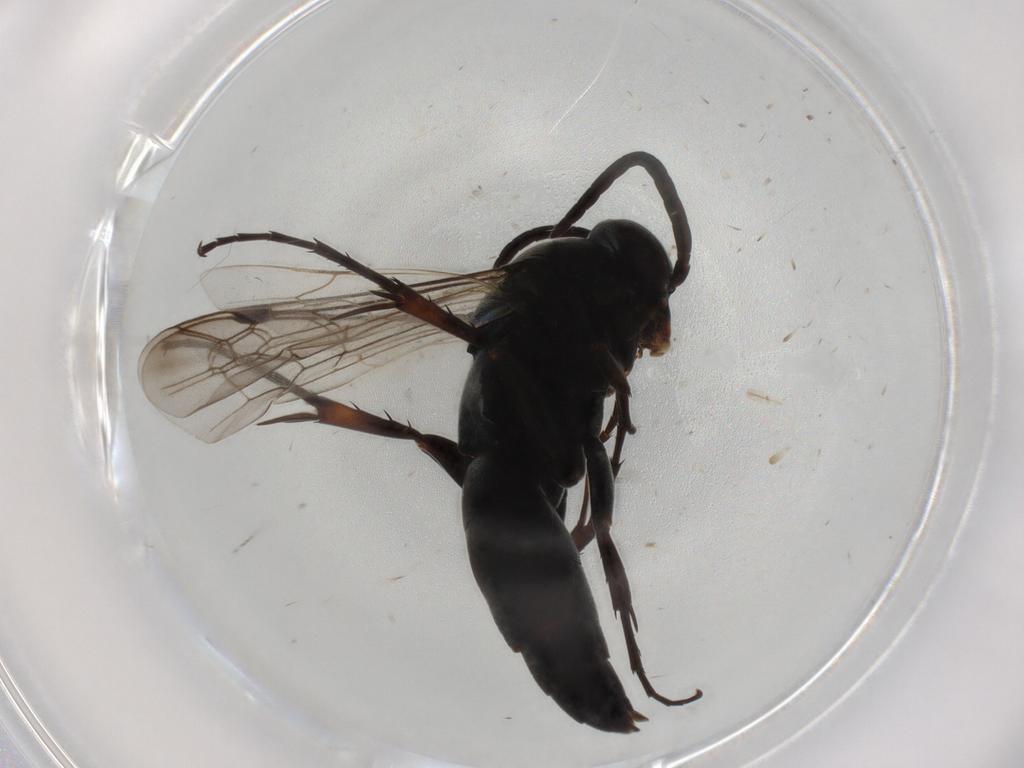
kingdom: Animalia
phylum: Arthropoda
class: Insecta
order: Hymenoptera
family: Pompilidae
